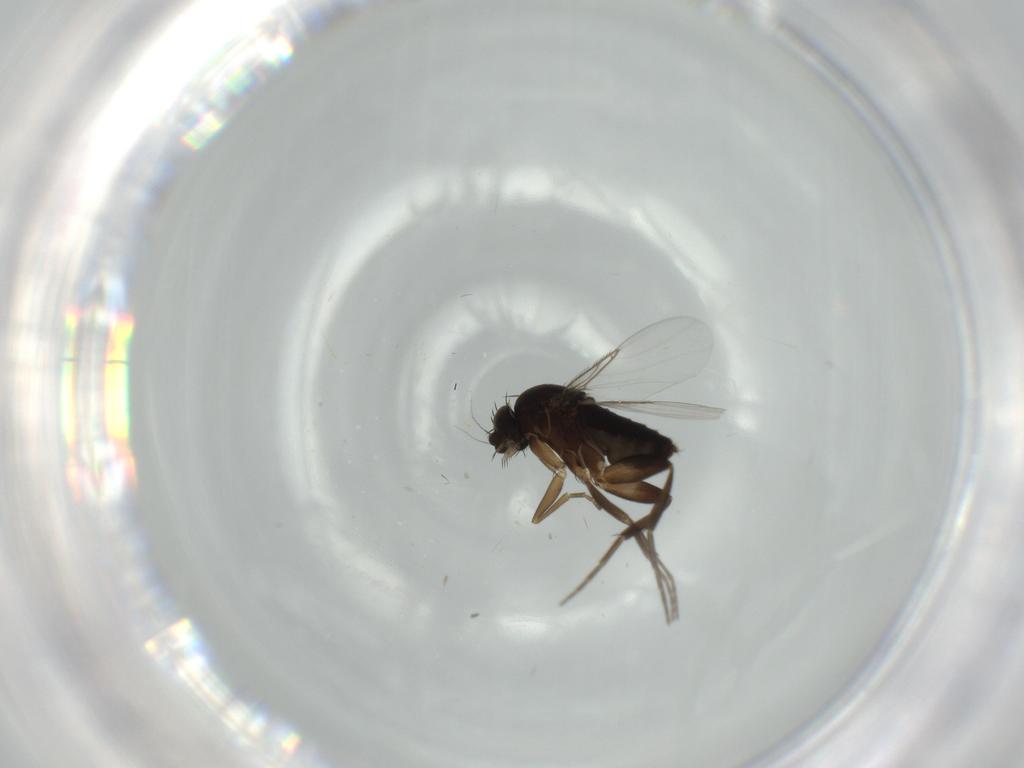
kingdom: Animalia
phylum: Arthropoda
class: Insecta
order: Diptera
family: Phoridae
